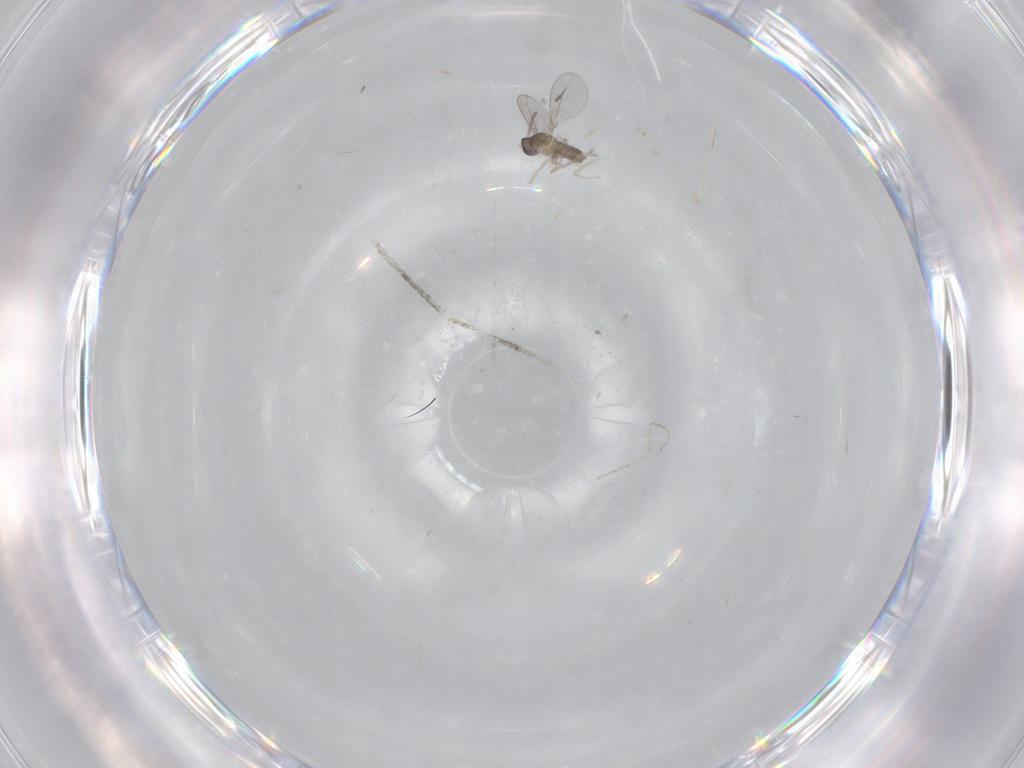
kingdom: Animalia
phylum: Arthropoda
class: Insecta
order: Diptera
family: Cecidomyiidae
